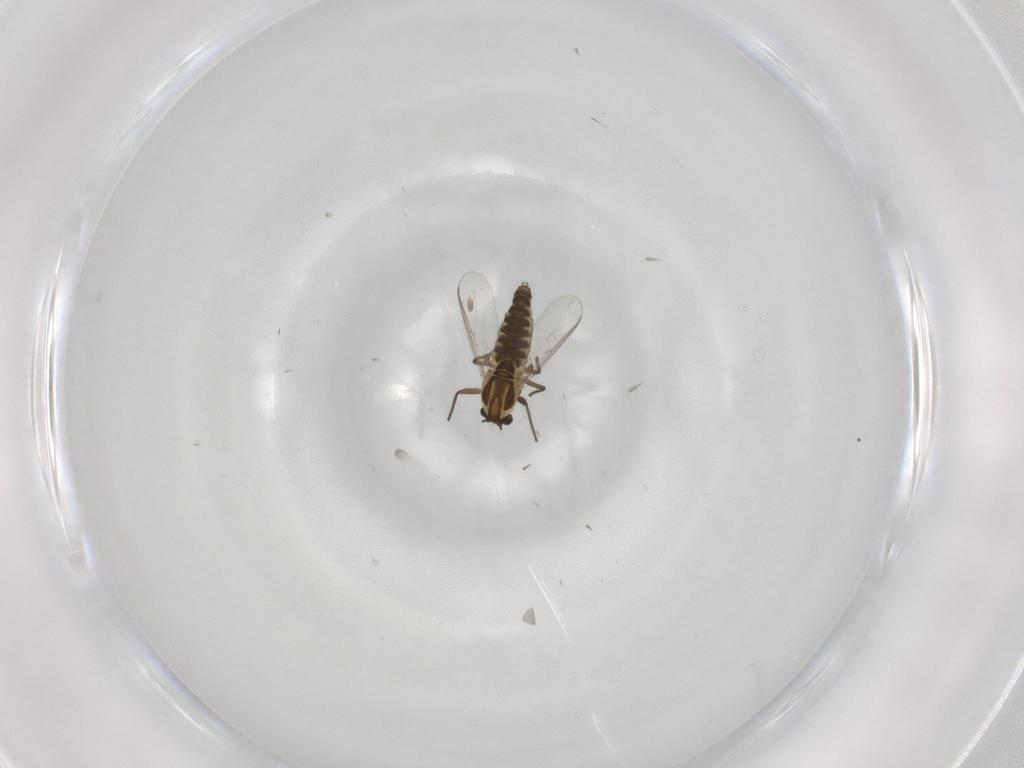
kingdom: Animalia
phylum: Arthropoda
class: Insecta
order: Diptera
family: Chironomidae
